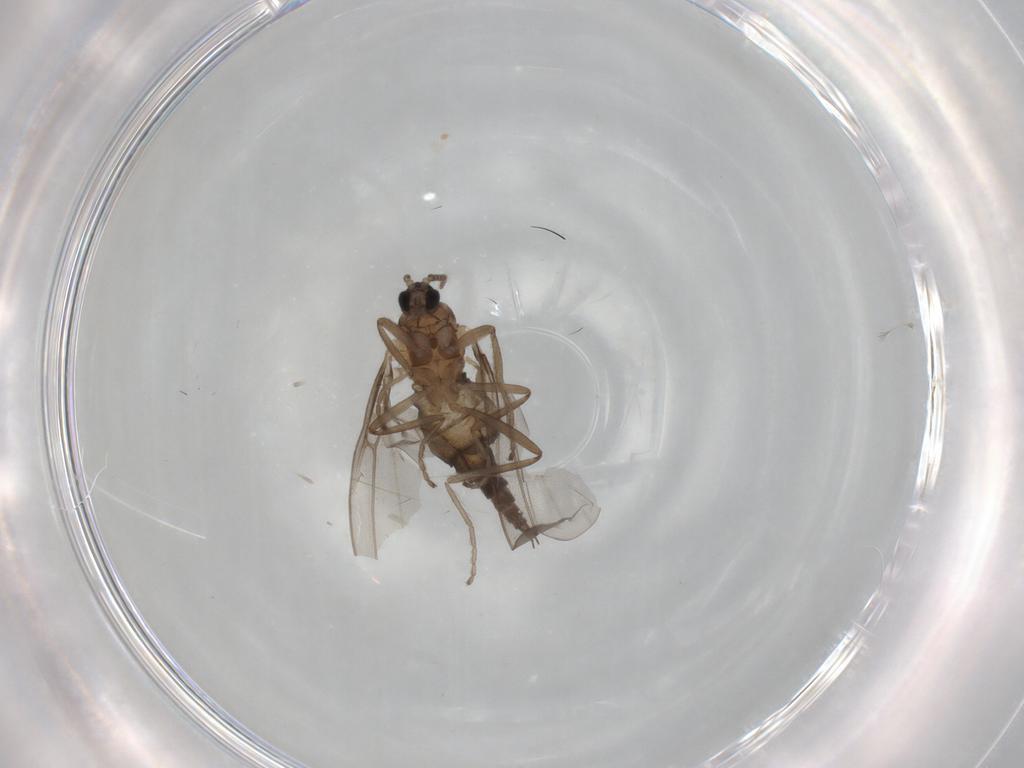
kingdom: Animalia
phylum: Arthropoda
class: Insecta
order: Diptera
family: Cecidomyiidae
